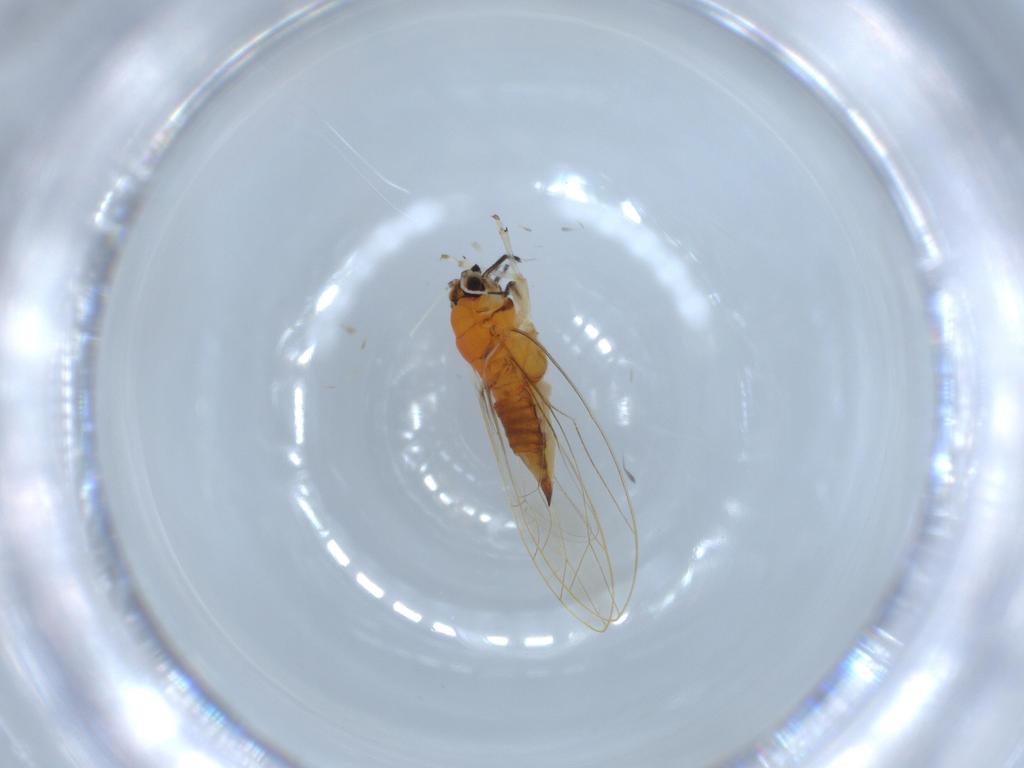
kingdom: Animalia
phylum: Arthropoda
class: Insecta
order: Hemiptera
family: Triozidae
